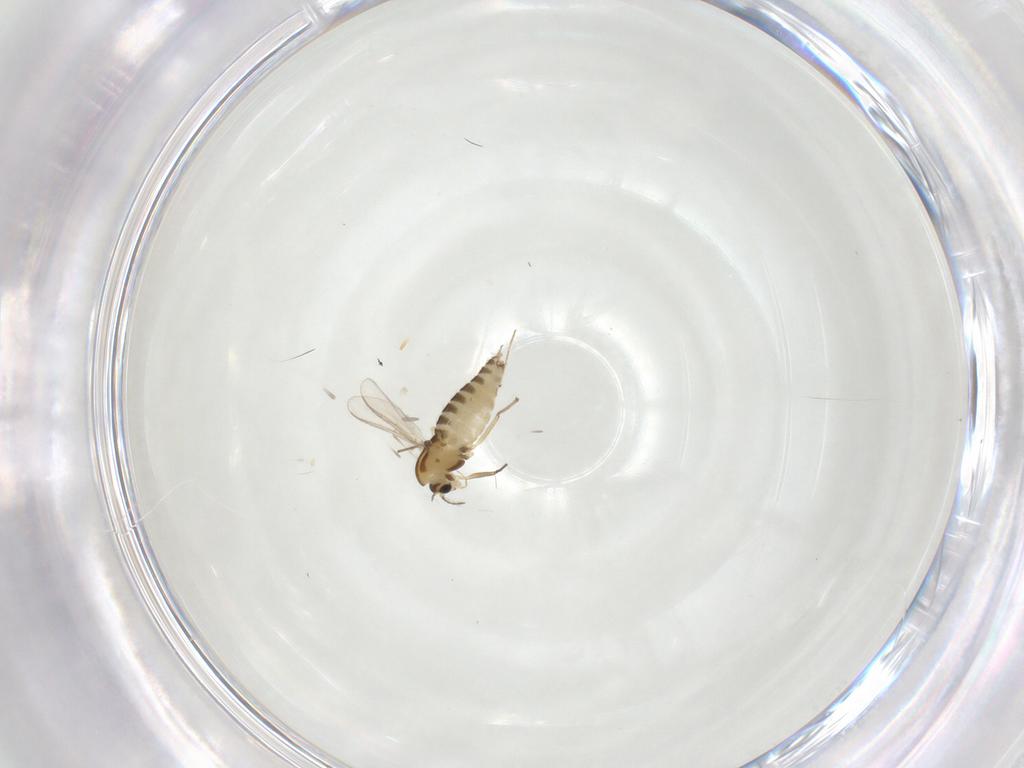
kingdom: Animalia
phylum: Arthropoda
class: Insecta
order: Diptera
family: Chironomidae
